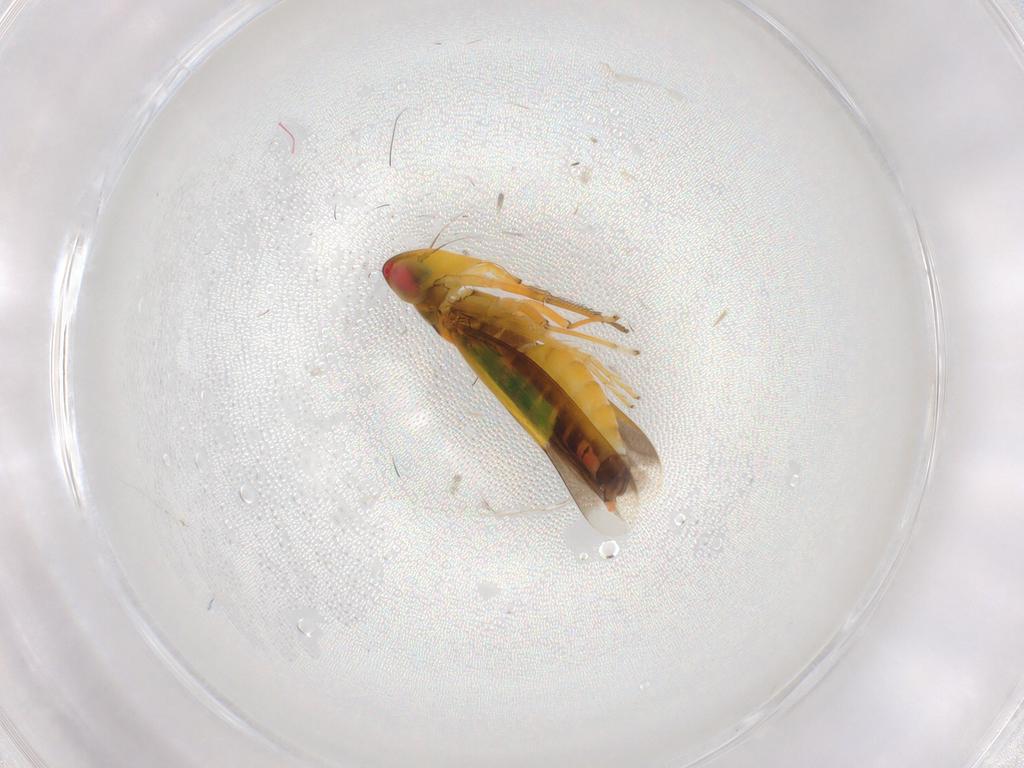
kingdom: Animalia
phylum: Arthropoda
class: Insecta
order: Hemiptera
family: Cicadellidae
